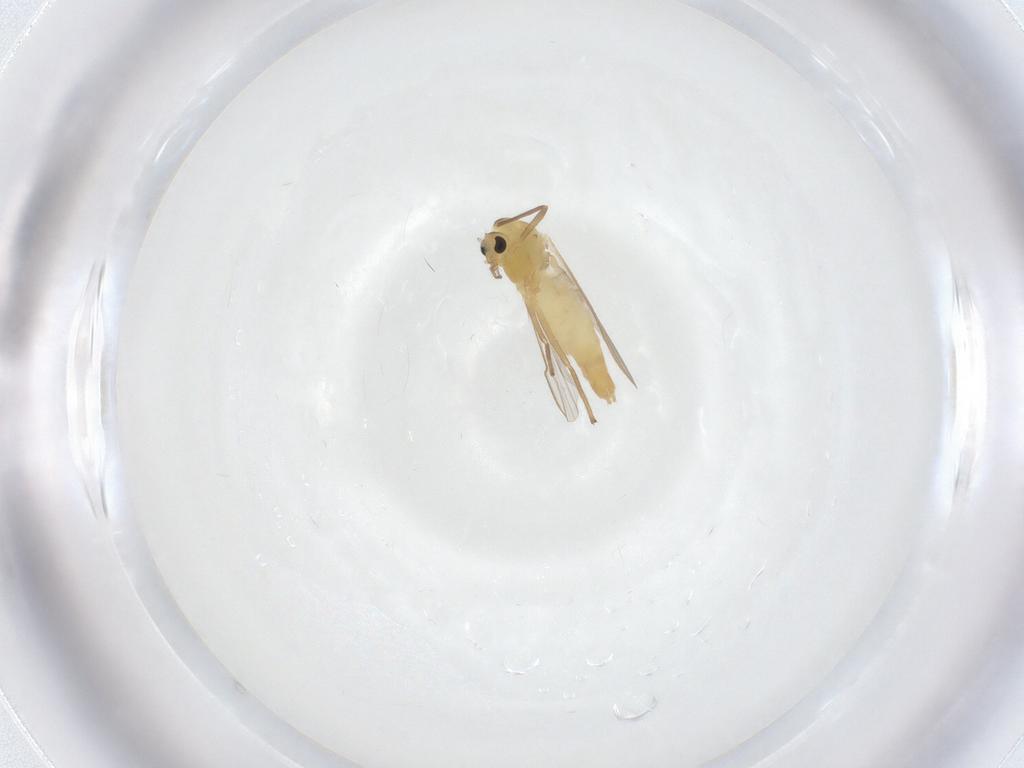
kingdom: Animalia
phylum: Arthropoda
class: Insecta
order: Diptera
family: Chironomidae
